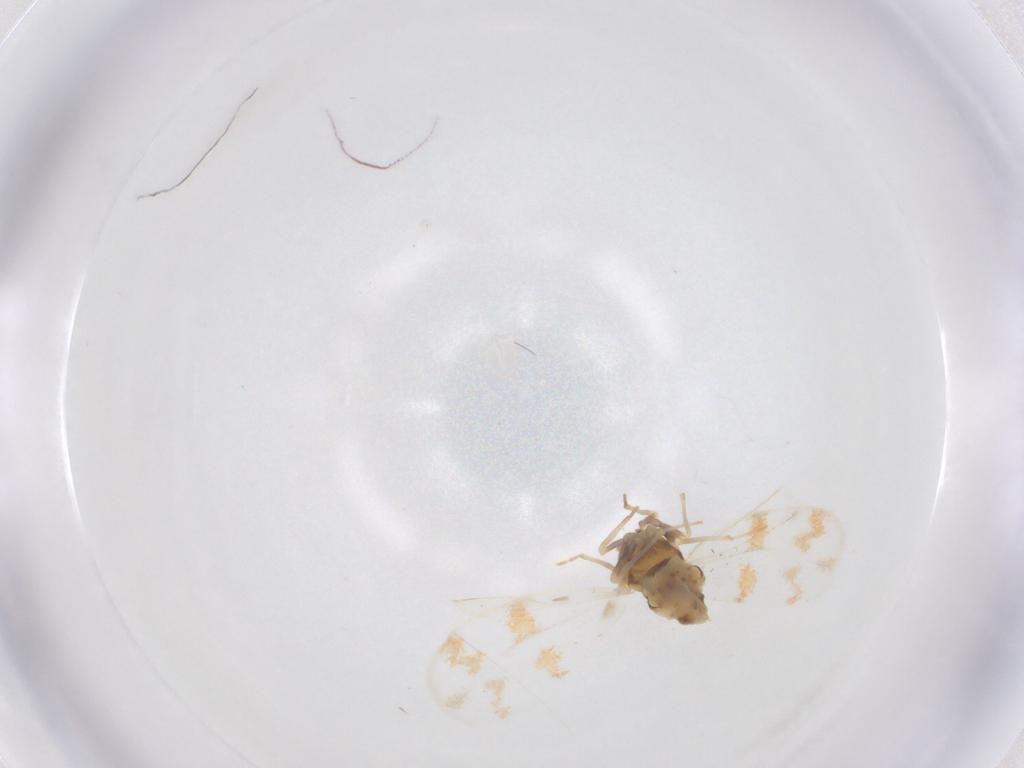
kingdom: Animalia
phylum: Arthropoda
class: Insecta
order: Hemiptera
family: Aleyrodidae
